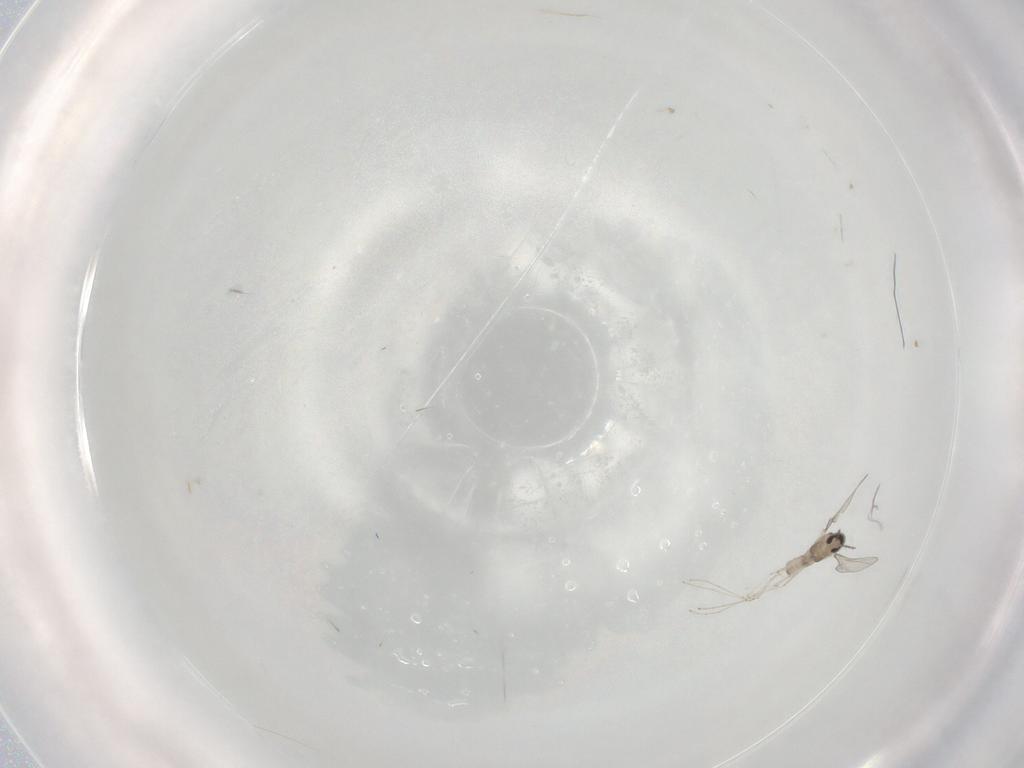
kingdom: Animalia
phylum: Arthropoda
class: Insecta
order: Diptera
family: Cecidomyiidae
